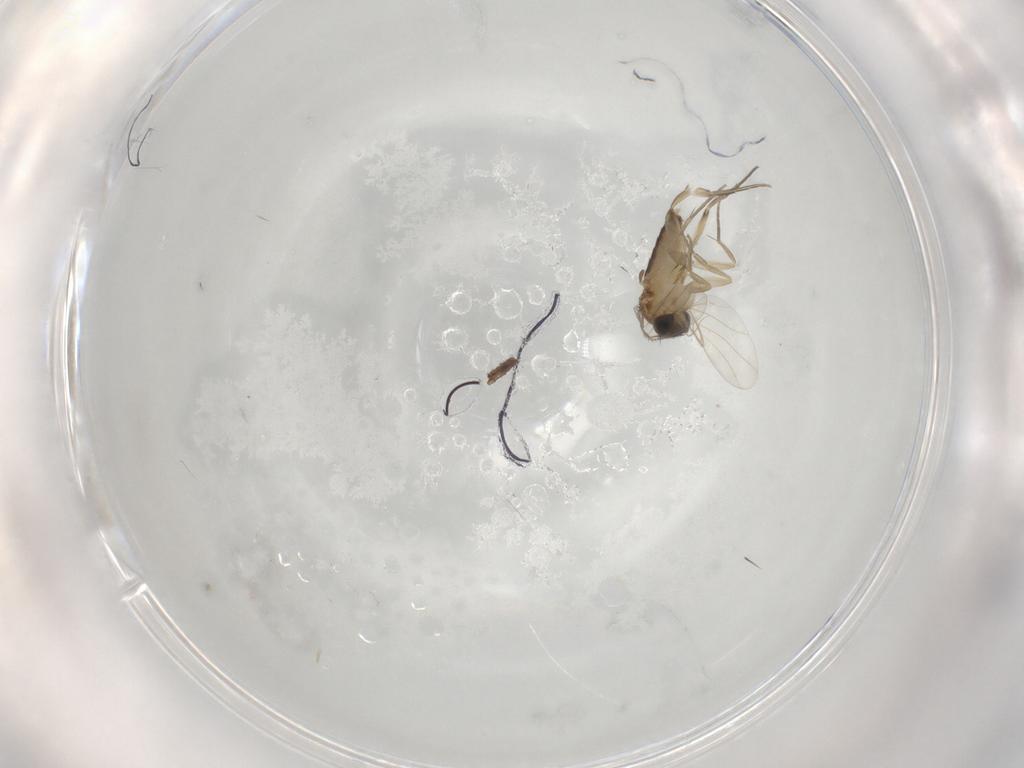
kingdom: Animalia
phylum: Arthropoda
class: Insecta
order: Diptera
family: Phoridae
